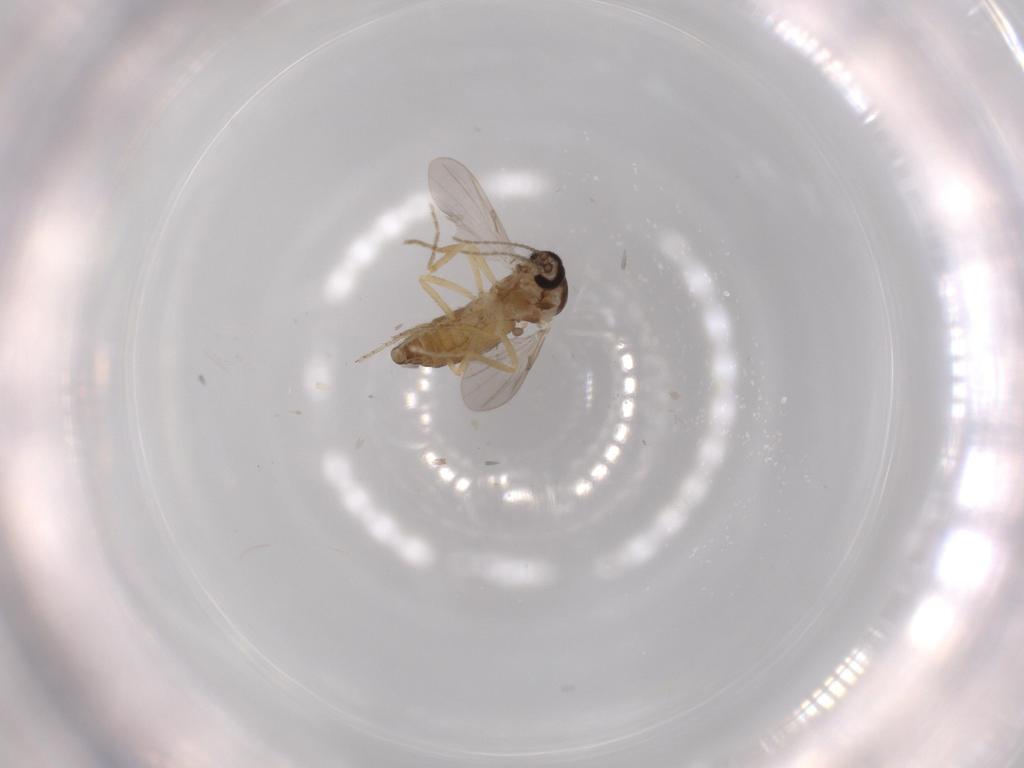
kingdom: Animalia
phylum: Arthropoda
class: Insecta
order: Diptera
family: Ceratopogonidae
